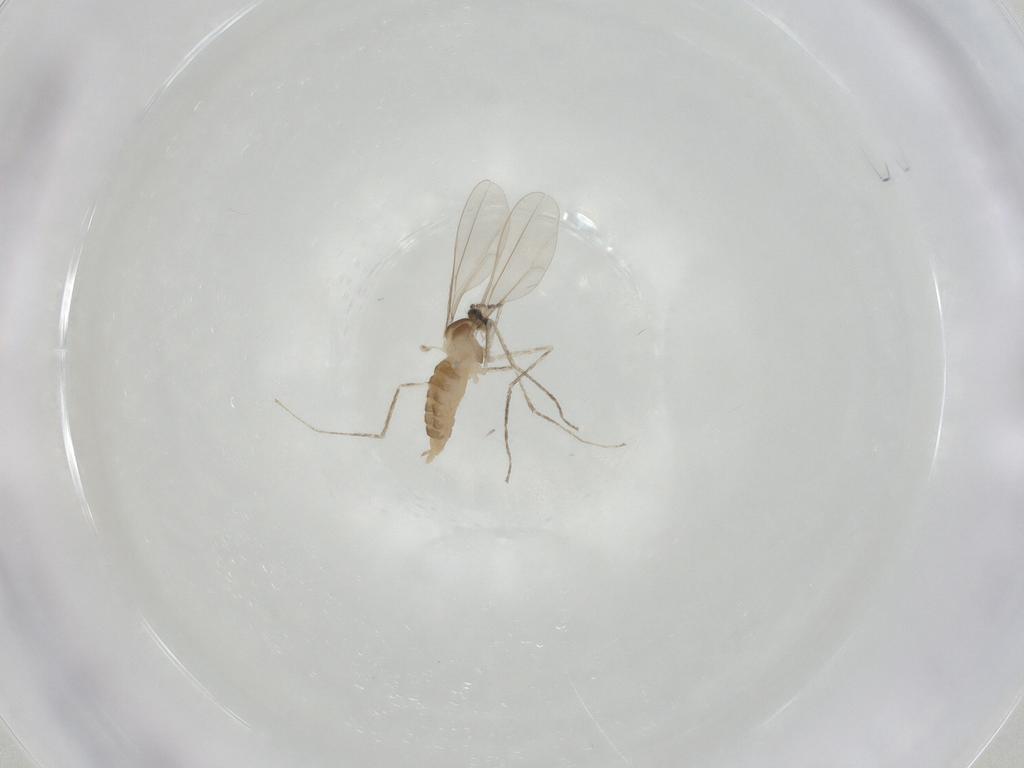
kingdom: Animalia
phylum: Arthropoda
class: Insecta
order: Diptera
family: Cecidomyiidae
